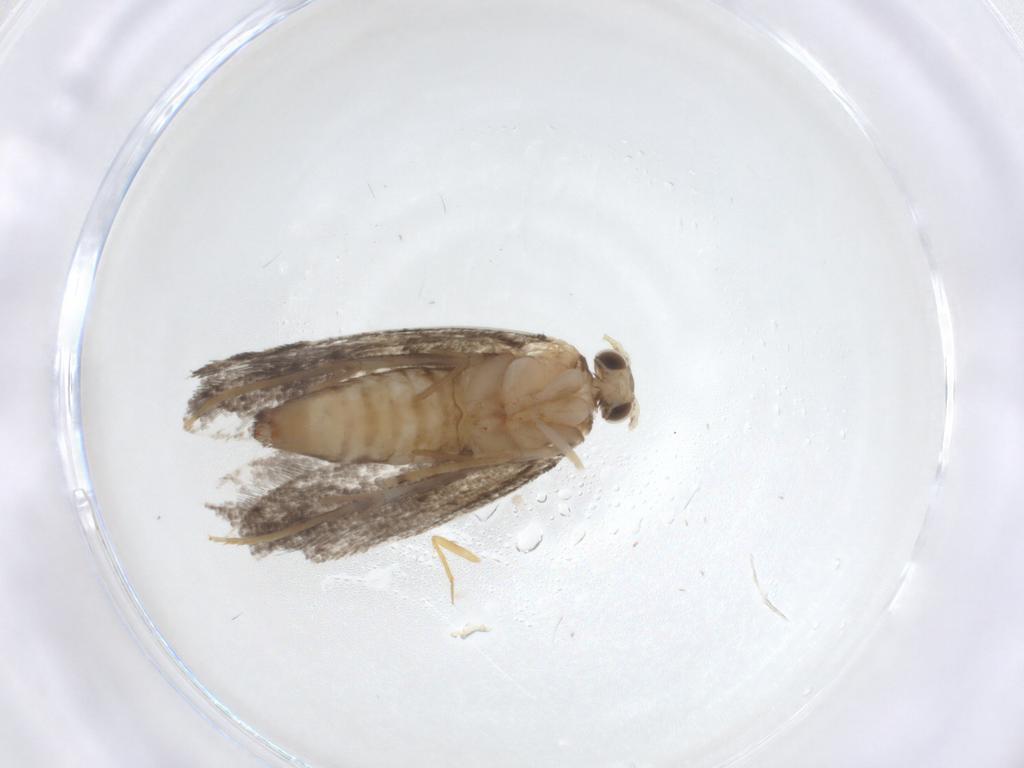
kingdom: Animalia
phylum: Arthropoda
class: Insecta
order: Lepidoptera
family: Tineidae
